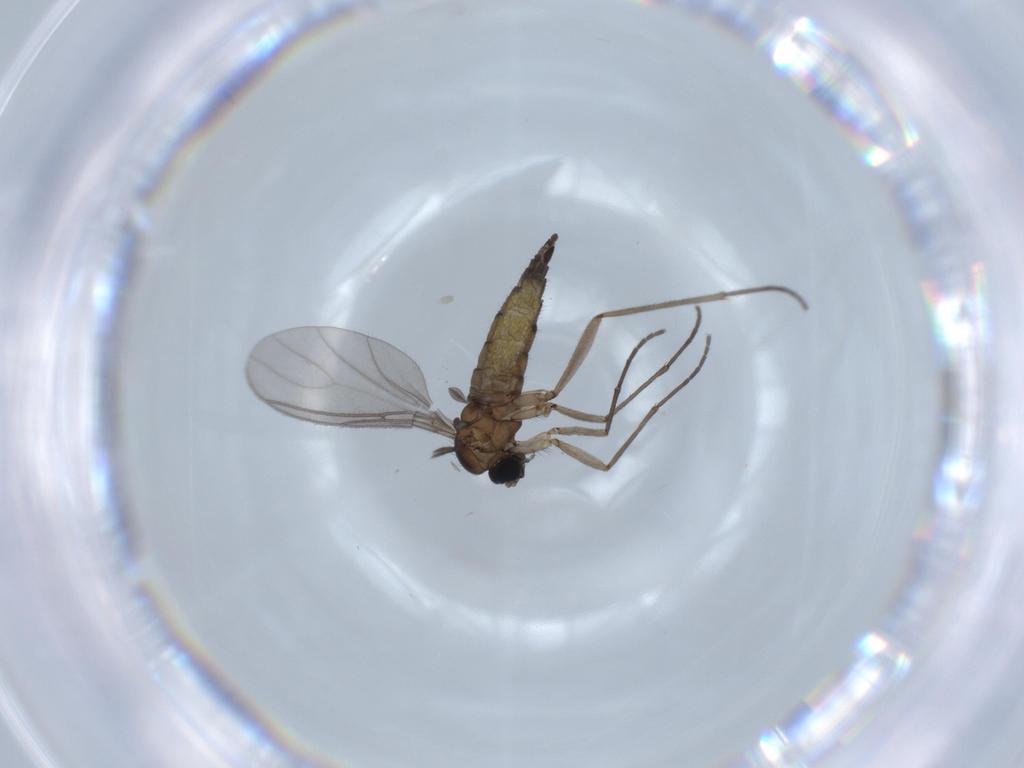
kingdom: Animalia
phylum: Arthropoda
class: Insecta
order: Diptera
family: Sciaridae
